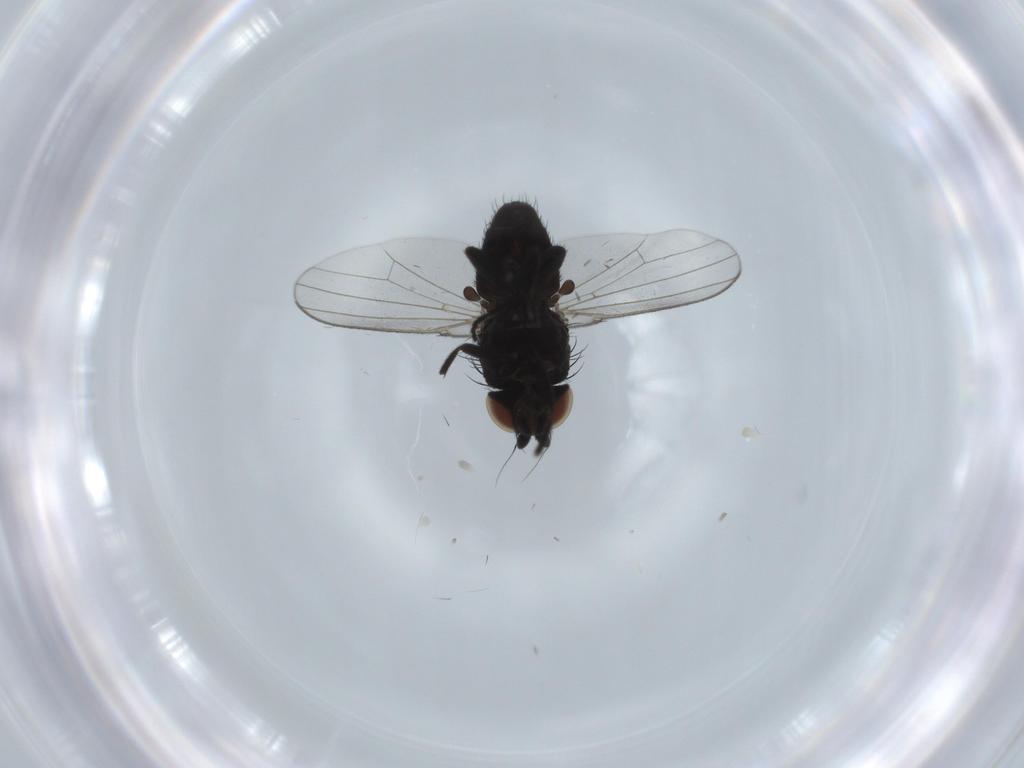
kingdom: Animalia
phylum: Arthropoda
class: Insecta
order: Diptera
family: Milichiidae
